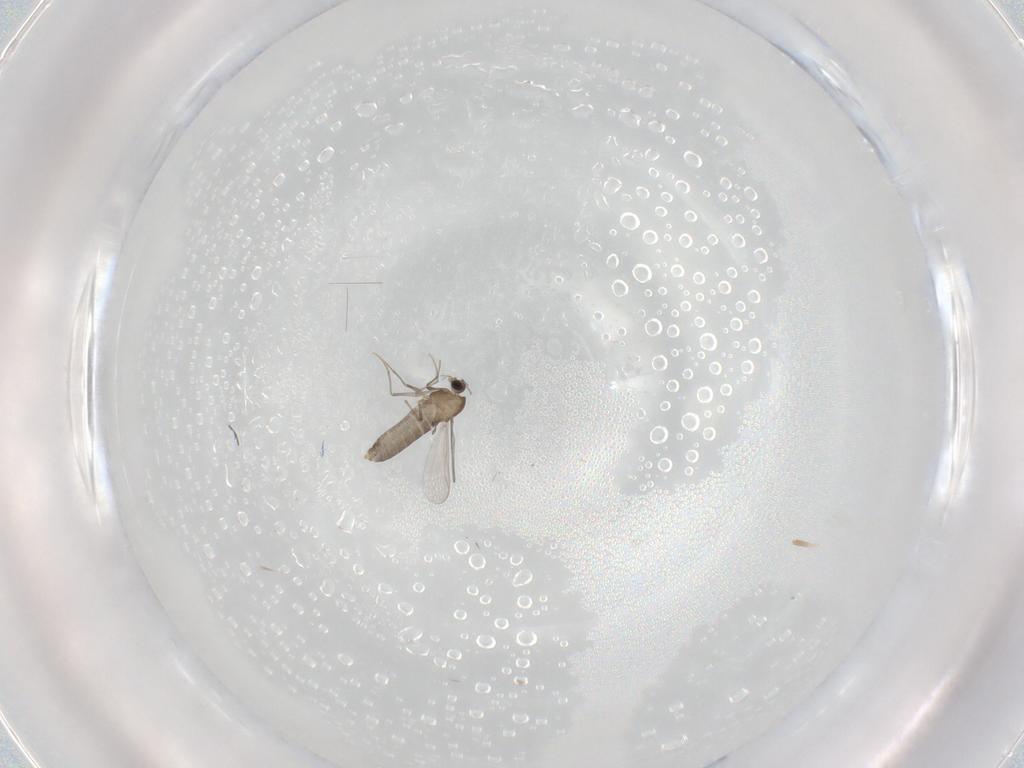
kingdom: Animalia
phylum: Arthropoda
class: Insecta
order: Diptera
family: Chironomidae
